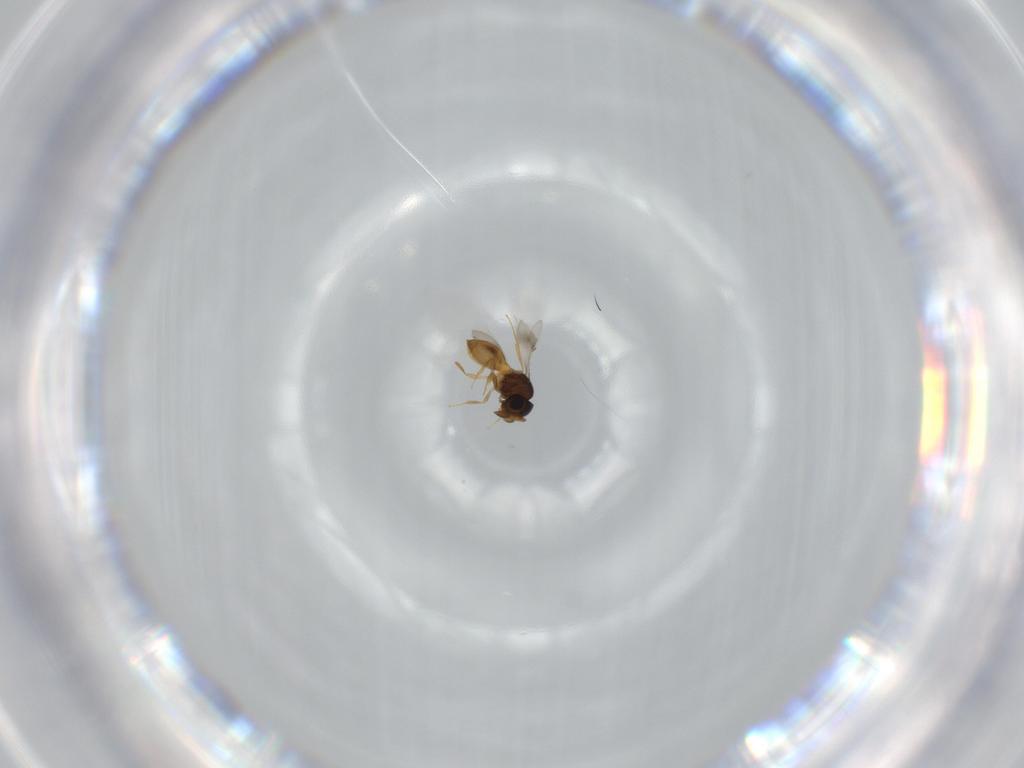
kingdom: Animalia
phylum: Arthropoda
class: Insecta
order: Hymenoptera
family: Scelionidae
